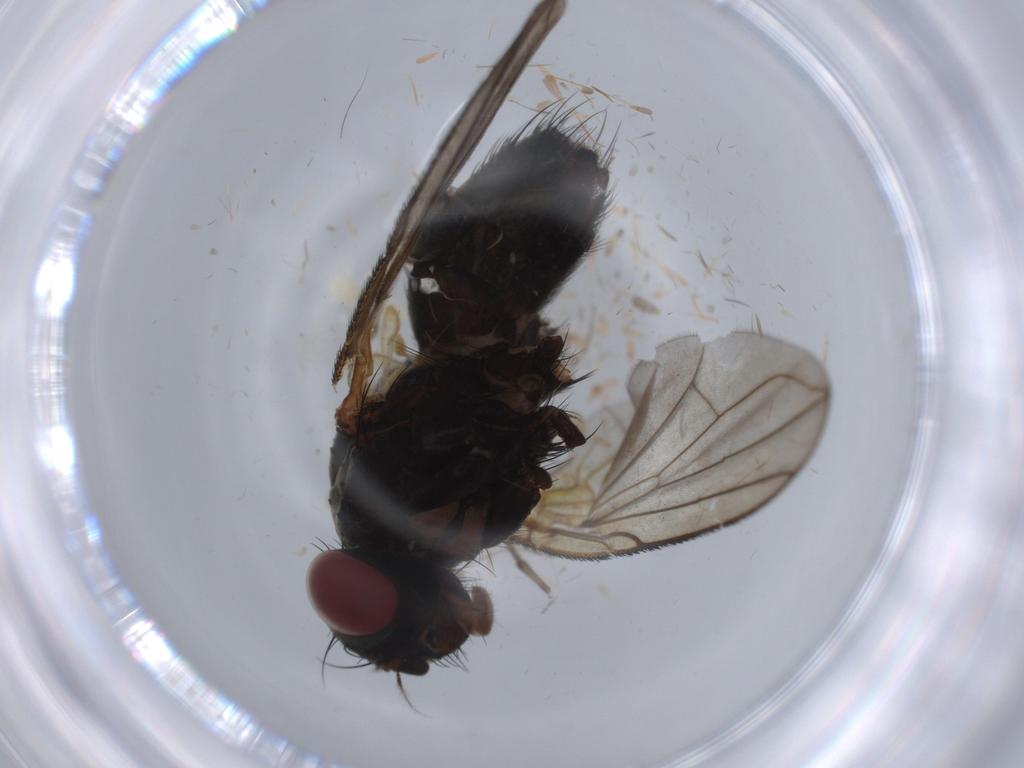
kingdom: Animalia
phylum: Arthropoda
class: Insecta
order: Diptera
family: Calliphoridae
